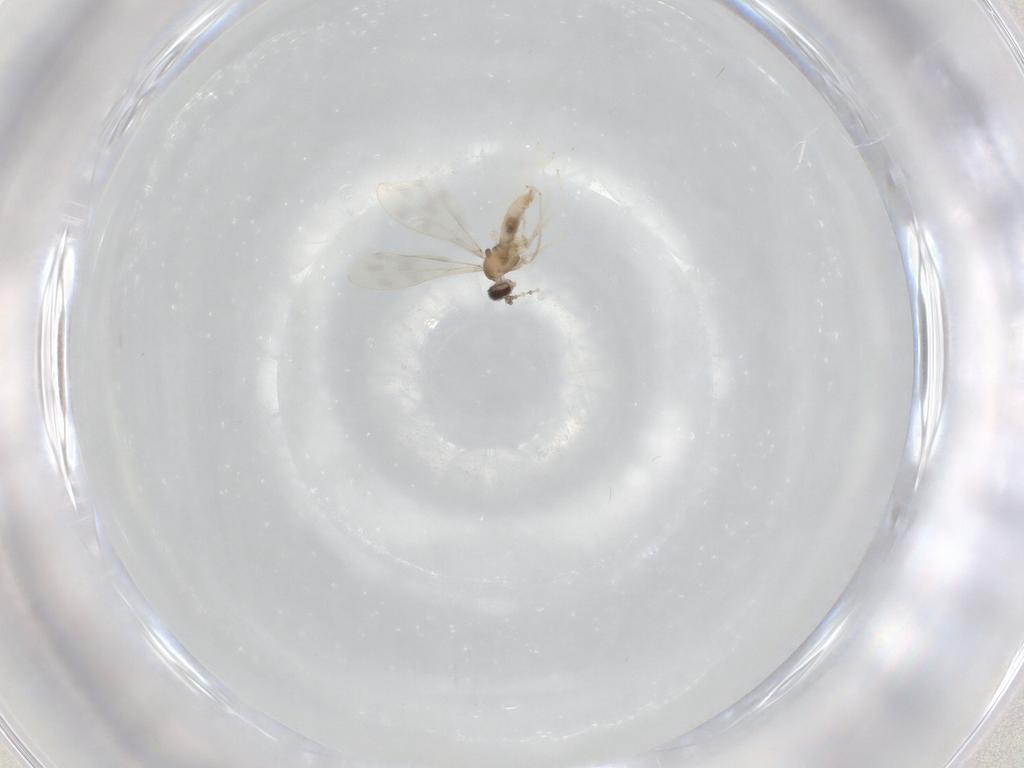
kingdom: Animalia
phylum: Arthropoda
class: Insecta
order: Diptera
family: Cecidomyiidae
